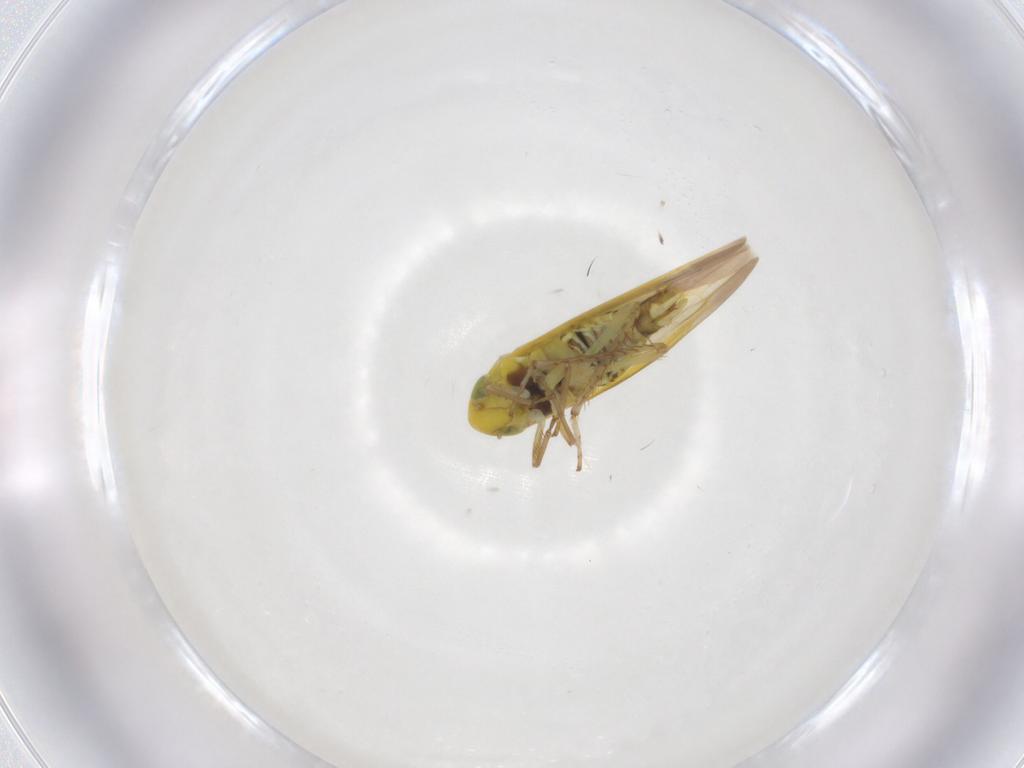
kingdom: Animalia
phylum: Arthropoda
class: Insecta
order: Hemiptera
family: Cicadellidae
